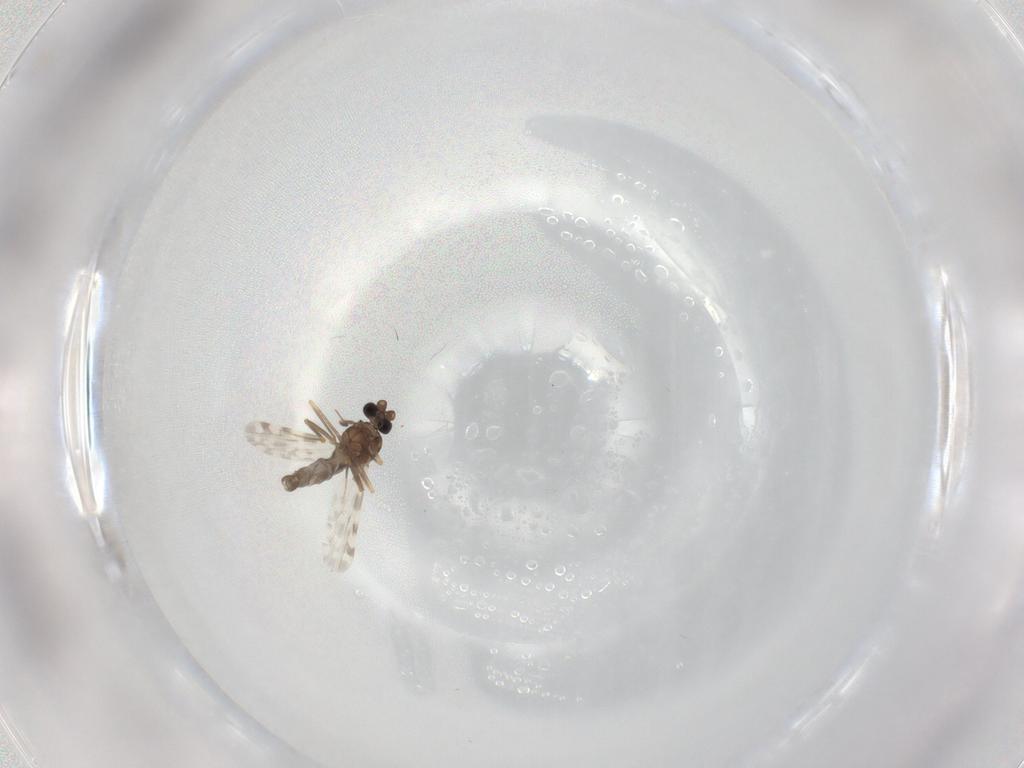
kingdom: Animalia
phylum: Arthropoda
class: Insecta
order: Diptera
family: Ceratopogonidae
